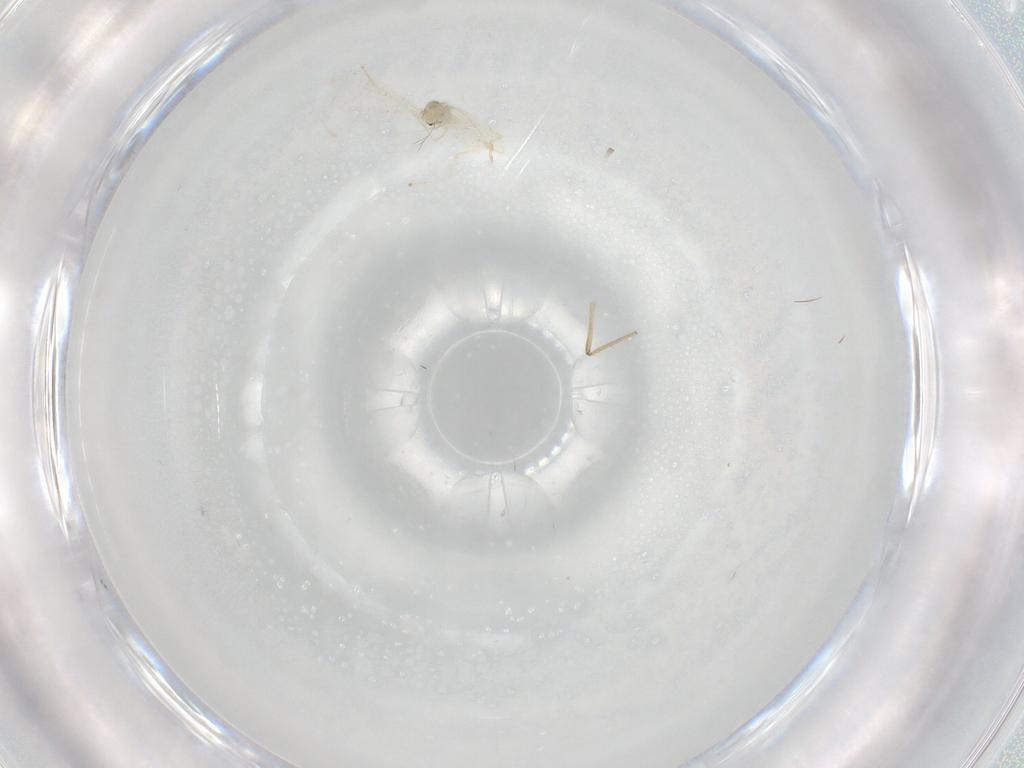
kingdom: Animalia
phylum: Arthropoda
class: Insecta
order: Diptera
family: Cecidomyiidae
